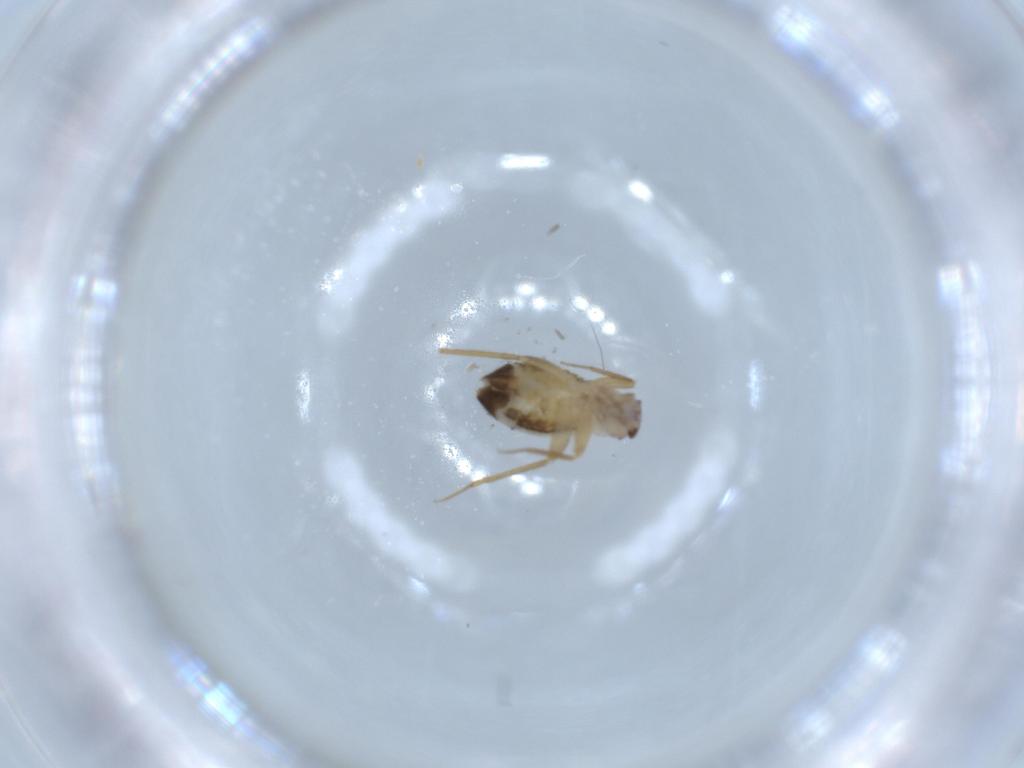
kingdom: Animalia
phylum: Arthropoda
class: Insecta
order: Psocodea
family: Lepidopsocidae
